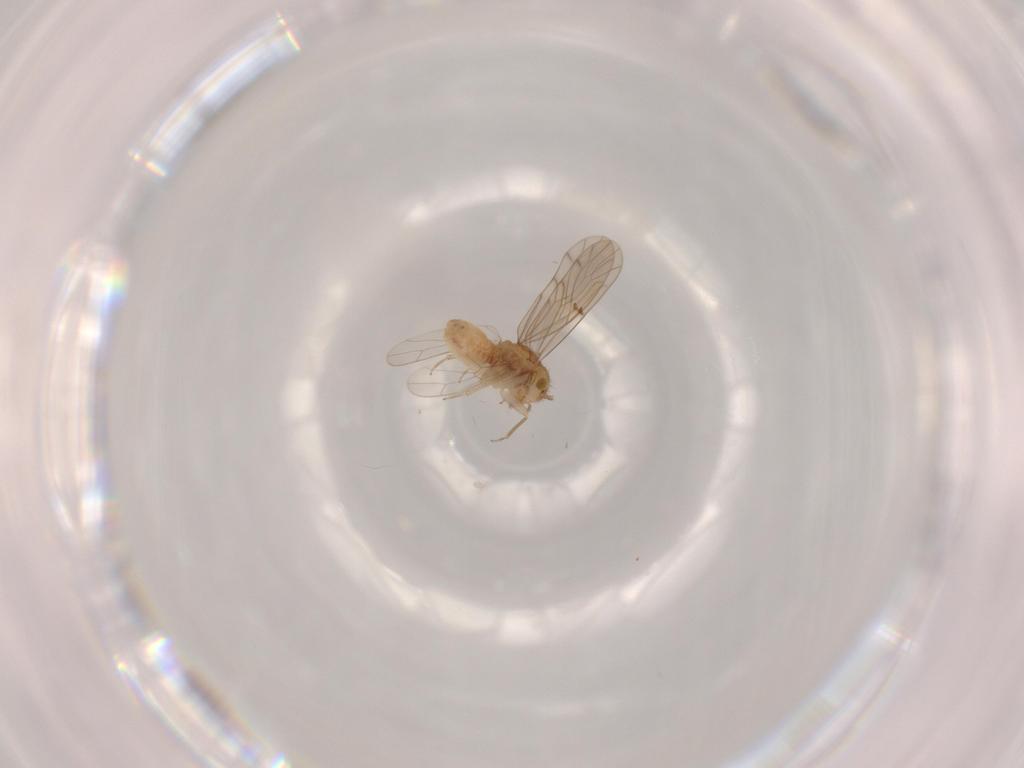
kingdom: Animalia
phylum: Arthropoda
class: Insecta
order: Psocodea
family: Ectopsocidae
